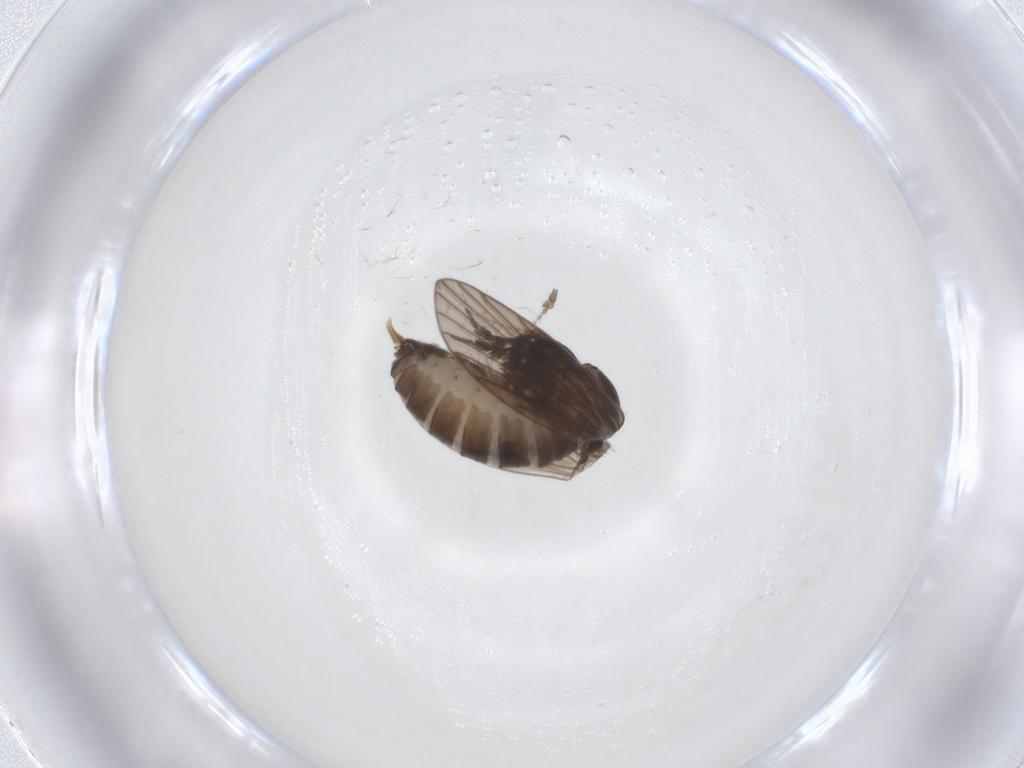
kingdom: Animalia
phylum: Arthropoda
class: Insecta
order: Diptera
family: Psychodidae
